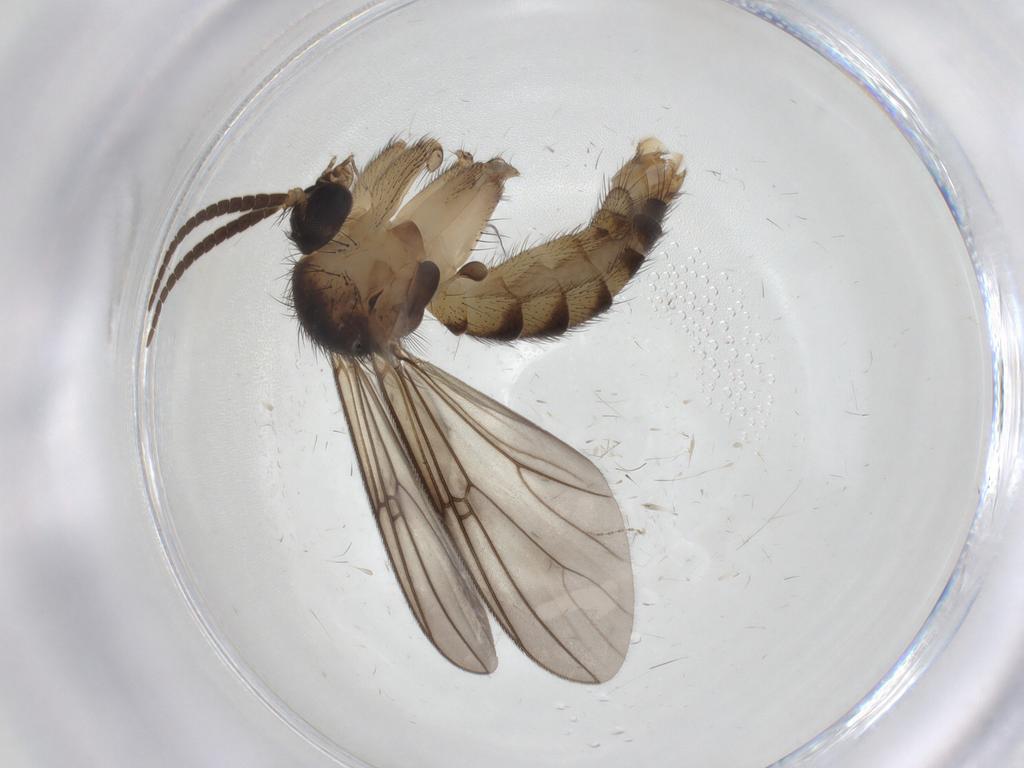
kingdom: Animalia
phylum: Arthropoda
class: Insecta
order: Diptera
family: Cecidomyiidae
